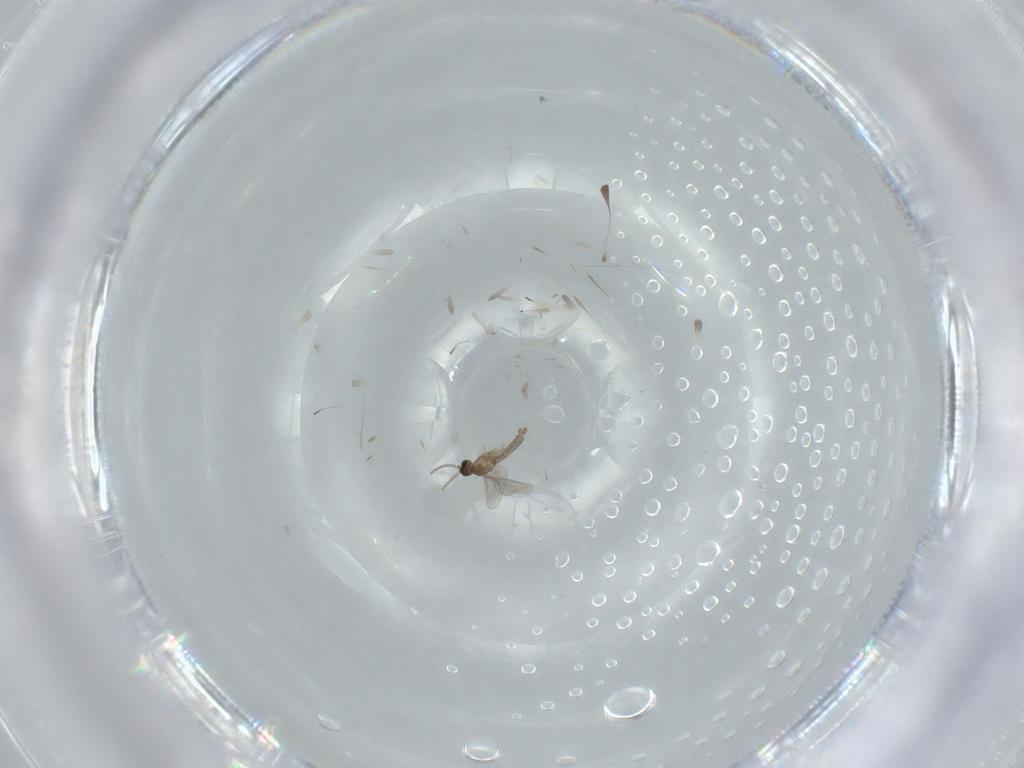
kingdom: Animalia
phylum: Arthropoda
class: Insecta
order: Diptera
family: Cecidomyiidae
